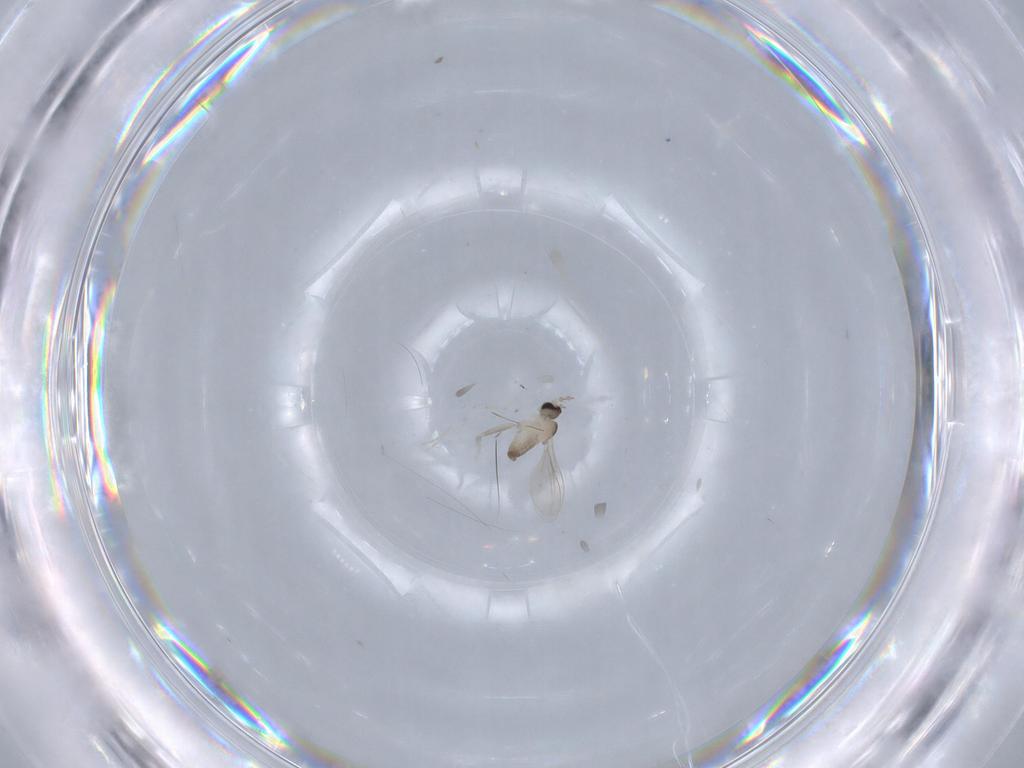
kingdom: Animalia
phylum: Arthropoda
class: Insecta
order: Diptera
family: Cecidomyiidae
